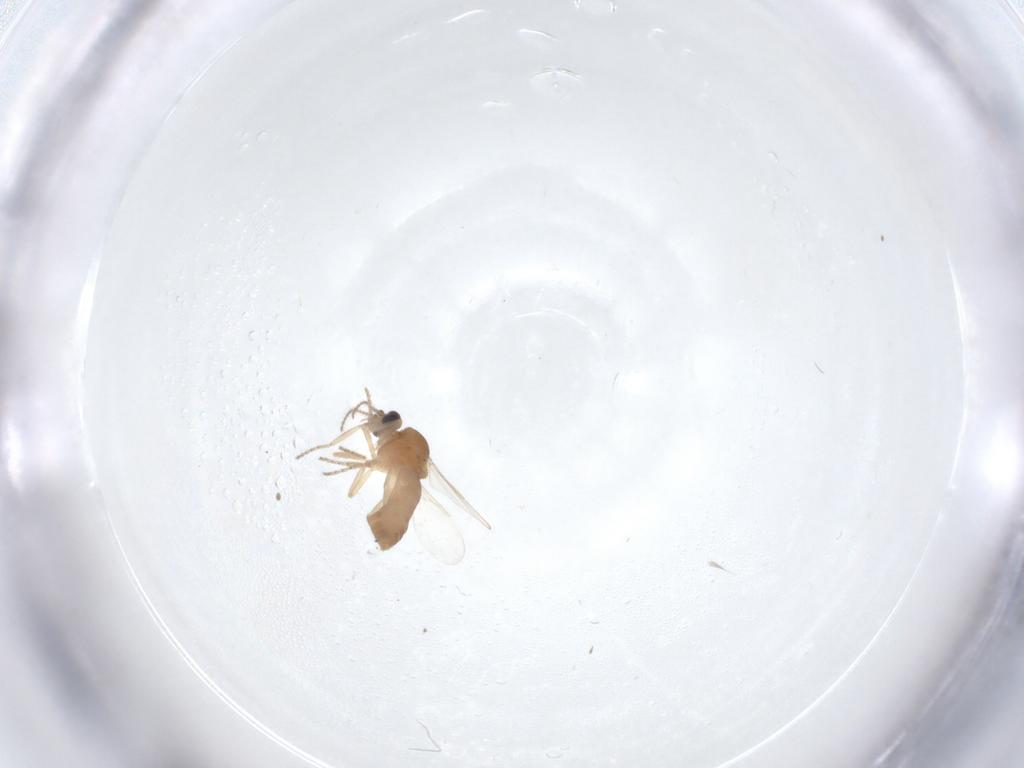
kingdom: Animalia
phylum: Arthropoda
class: Insecta
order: Diptera
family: Ceratopogonidae
